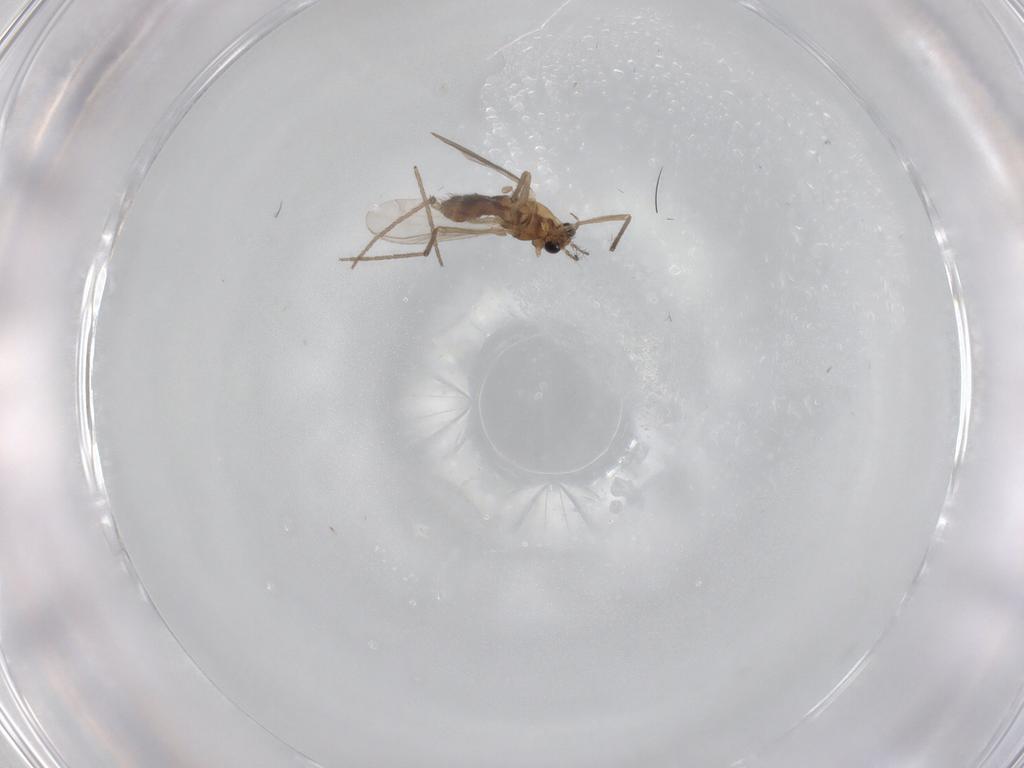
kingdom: Animalia
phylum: Arthropoda
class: Insecta
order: Diptera
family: Chironomidae
